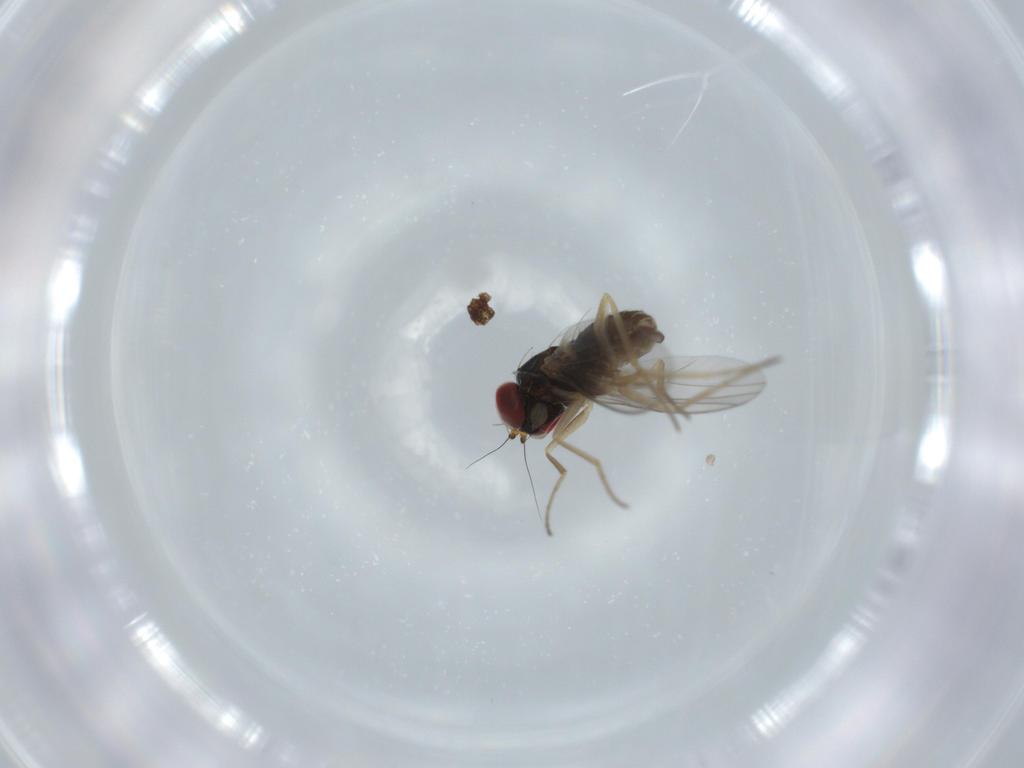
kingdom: Animalia
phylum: Arthropoda
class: Insecta
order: Diptera
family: Dolichopodidae
